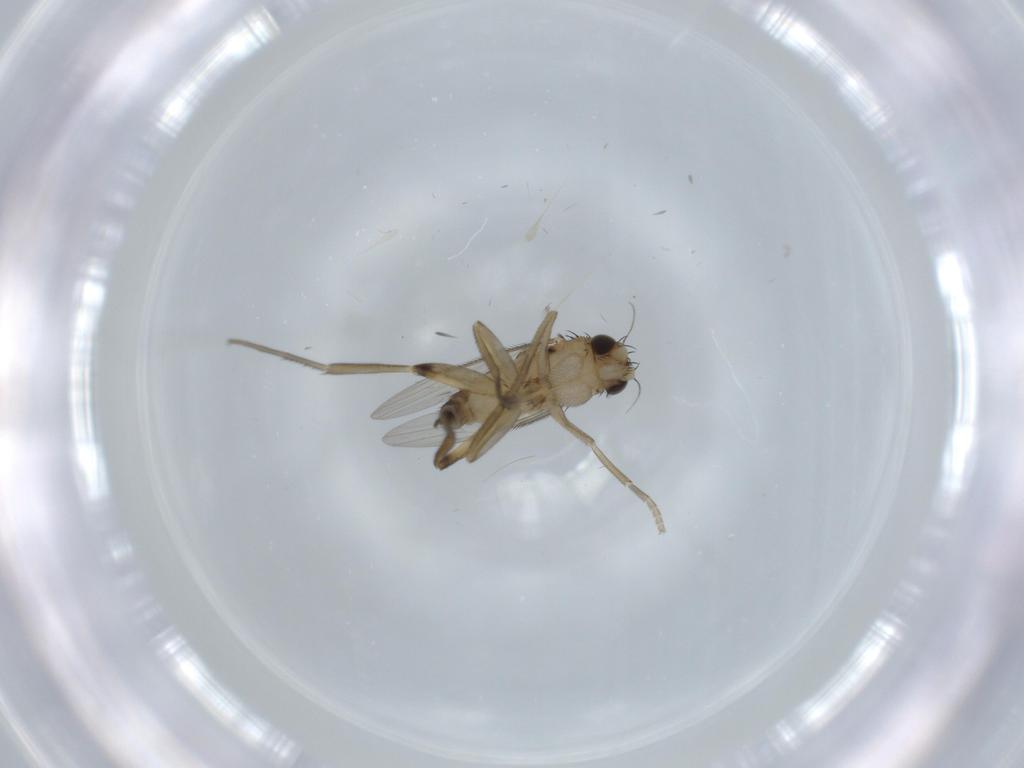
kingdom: Animalia
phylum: Arthropoda
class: Insecta
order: Diptera
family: Phoridae
